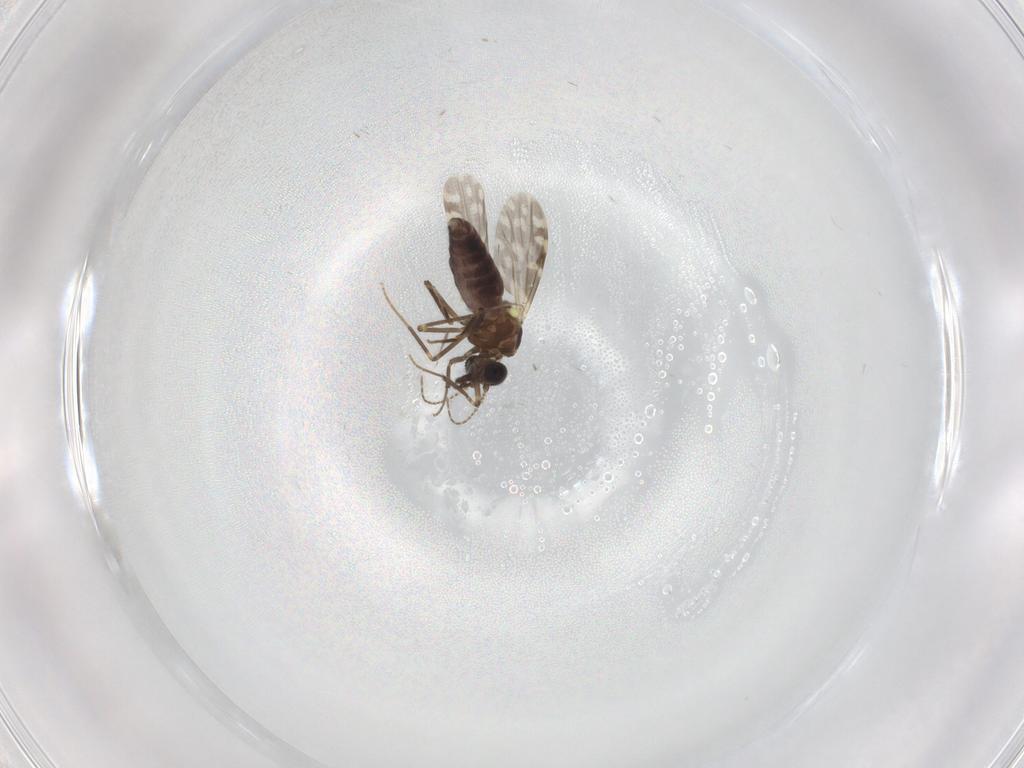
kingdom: Animalia
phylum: Arthropoda
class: Insecta
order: Diptera
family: Ceratopogonidae
